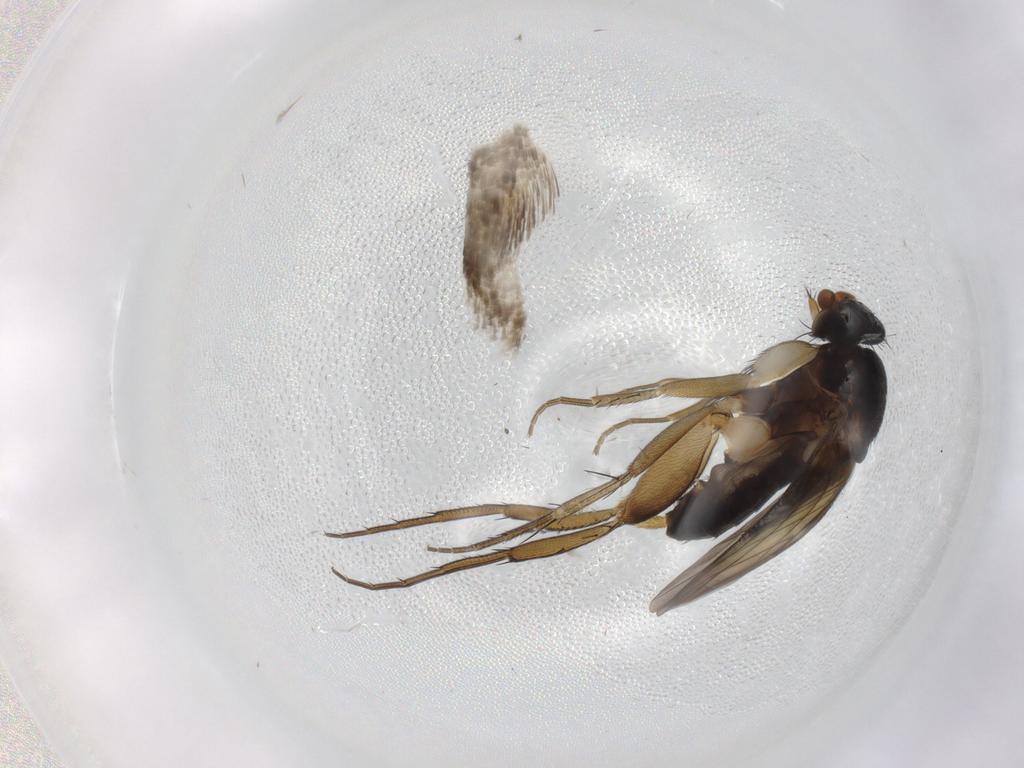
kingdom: Animalia
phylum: Arthropoda
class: Insecta
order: Diptera
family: Phoridae
